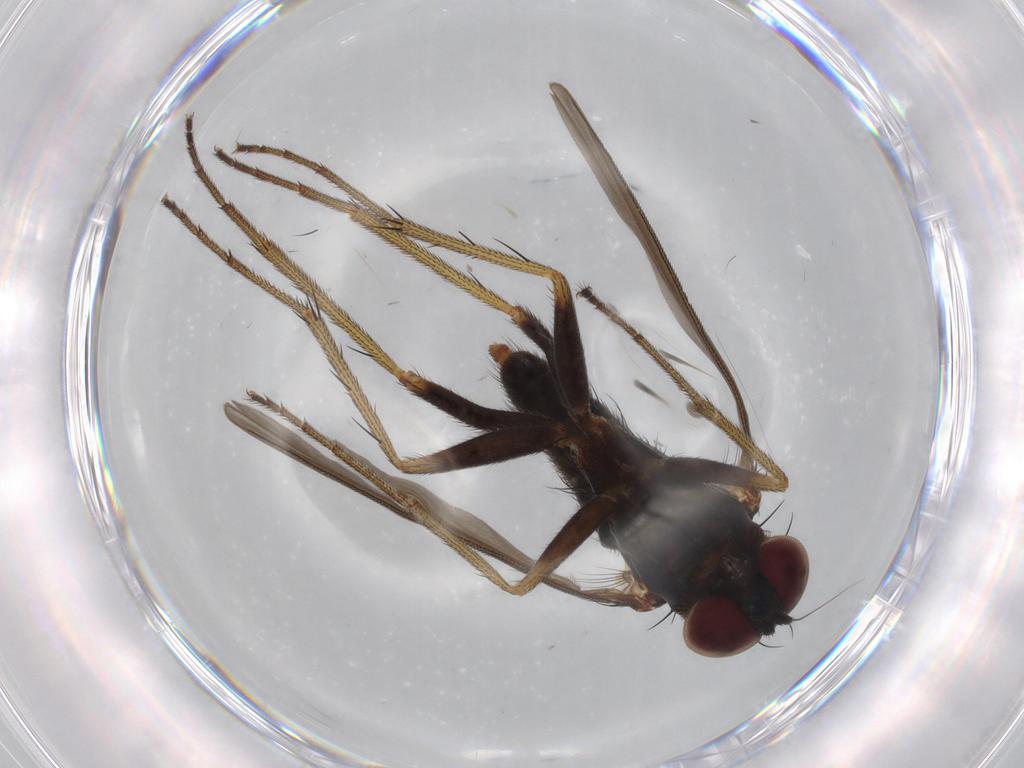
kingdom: Animalia
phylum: Arthropoda
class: Insecta
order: Diptera
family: Dolichopodidae
